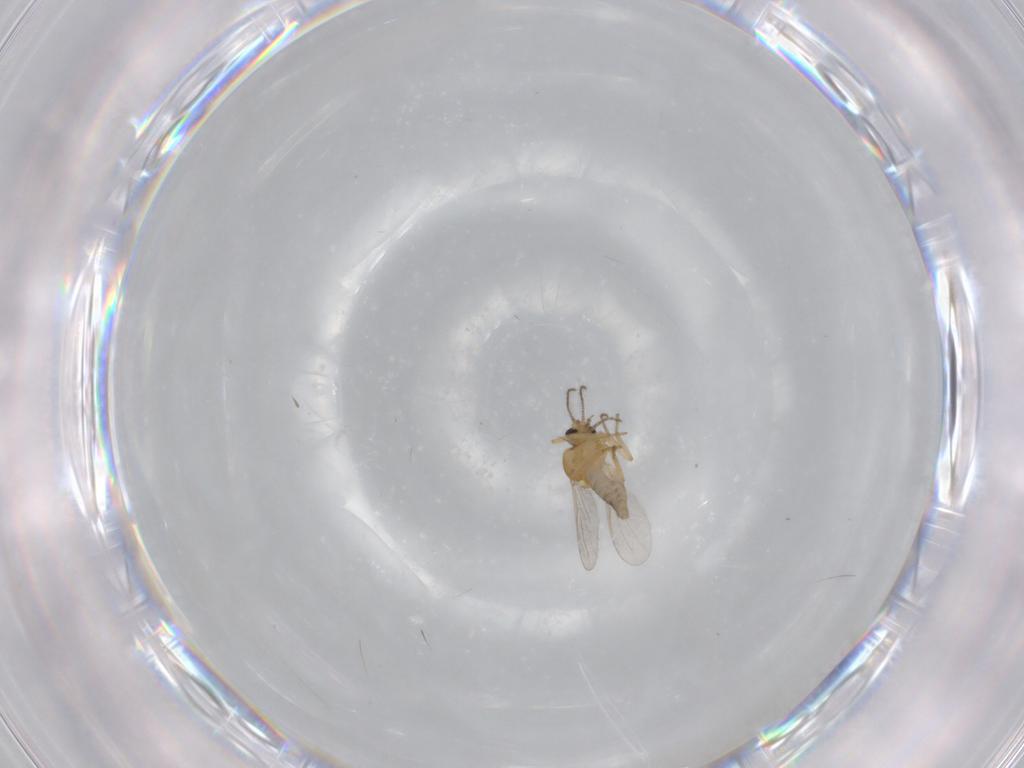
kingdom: Animalia
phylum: Arthropoda
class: Insecta
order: Diptera
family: Ceratopogonidae
